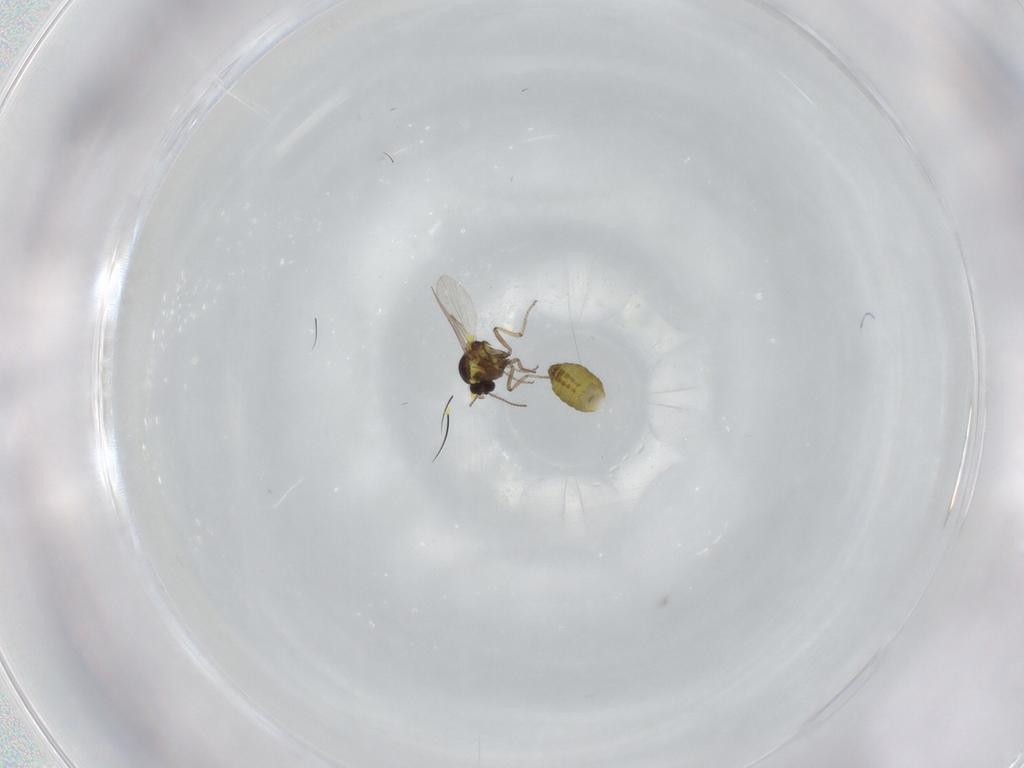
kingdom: Animalia
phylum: Arthropoda
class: Insecta
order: Diptera
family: Ceratopogonidae
